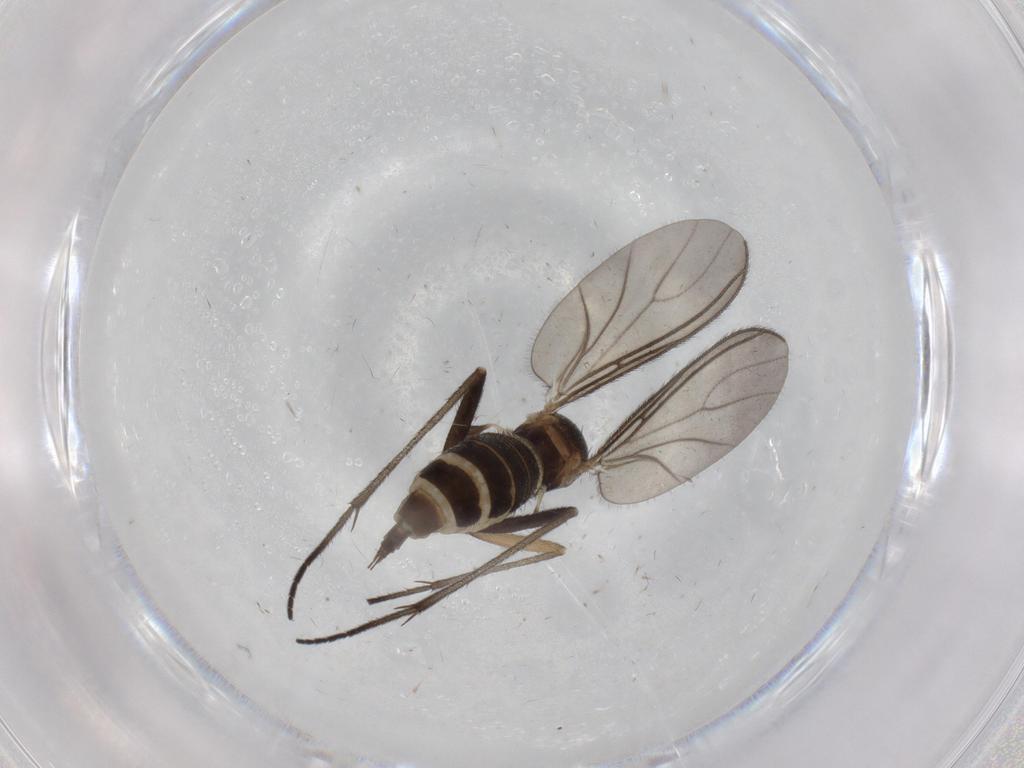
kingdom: Animalia
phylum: Arthropoda
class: Insecta
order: Diptera
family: Sciaridae
